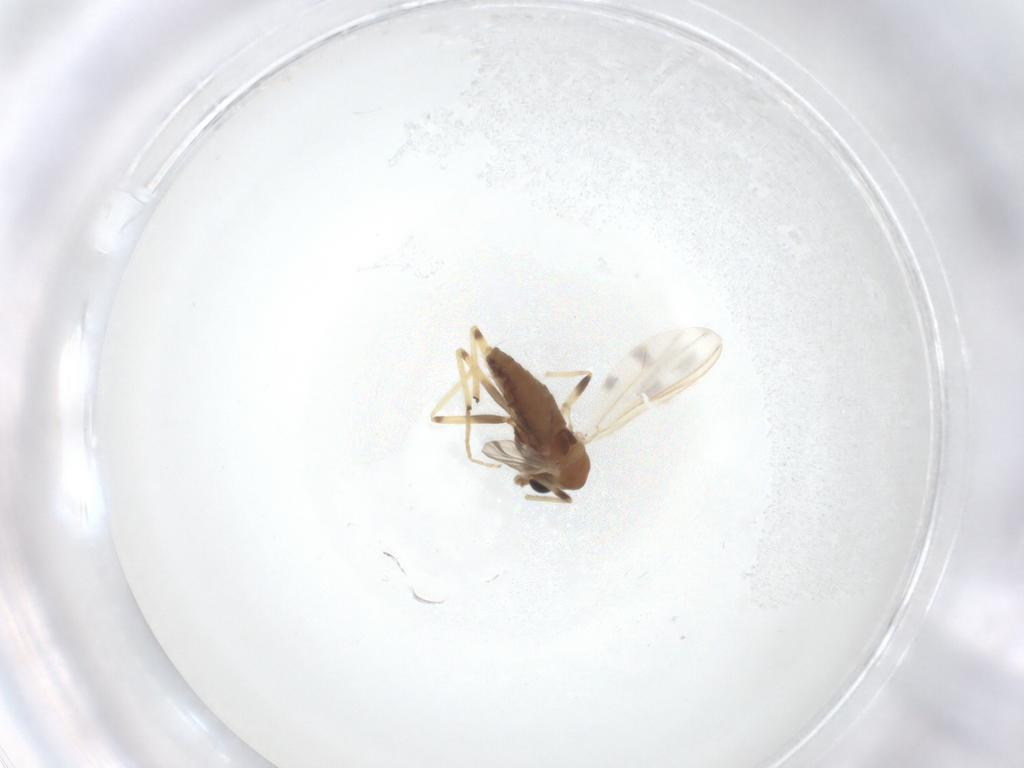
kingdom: Animalia
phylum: Arthropoda
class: Insecta
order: Diptera
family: Chironomidae
